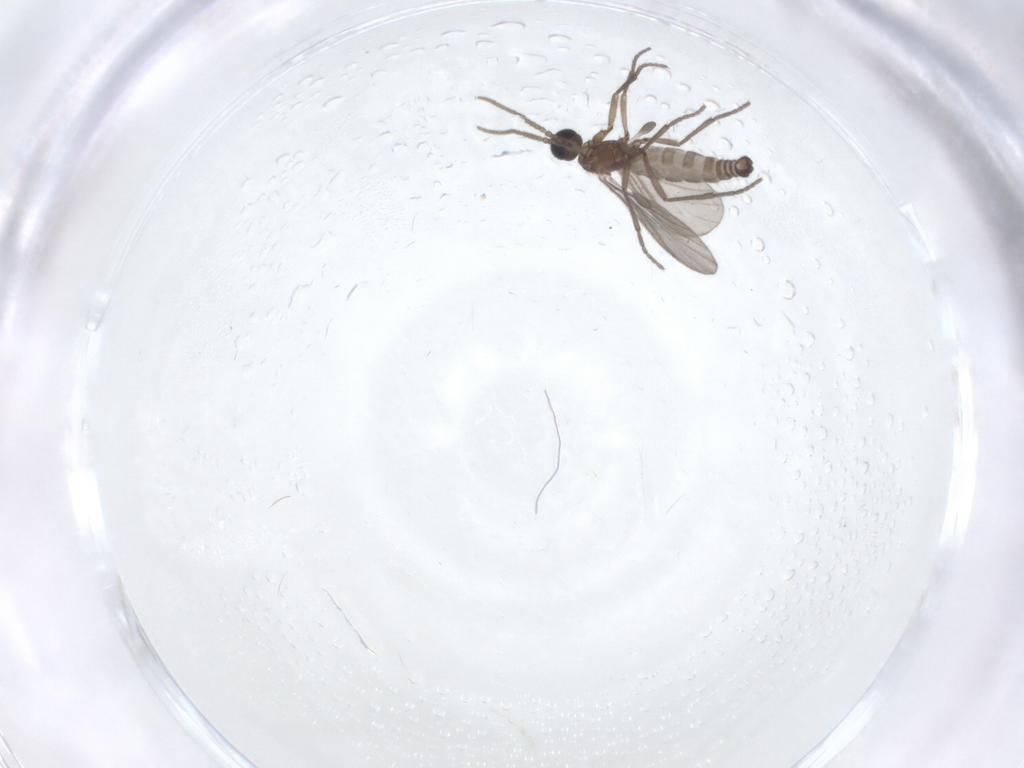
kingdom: Animalia
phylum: Arthropoda
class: Insecta
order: Diptera
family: Sciaridae
